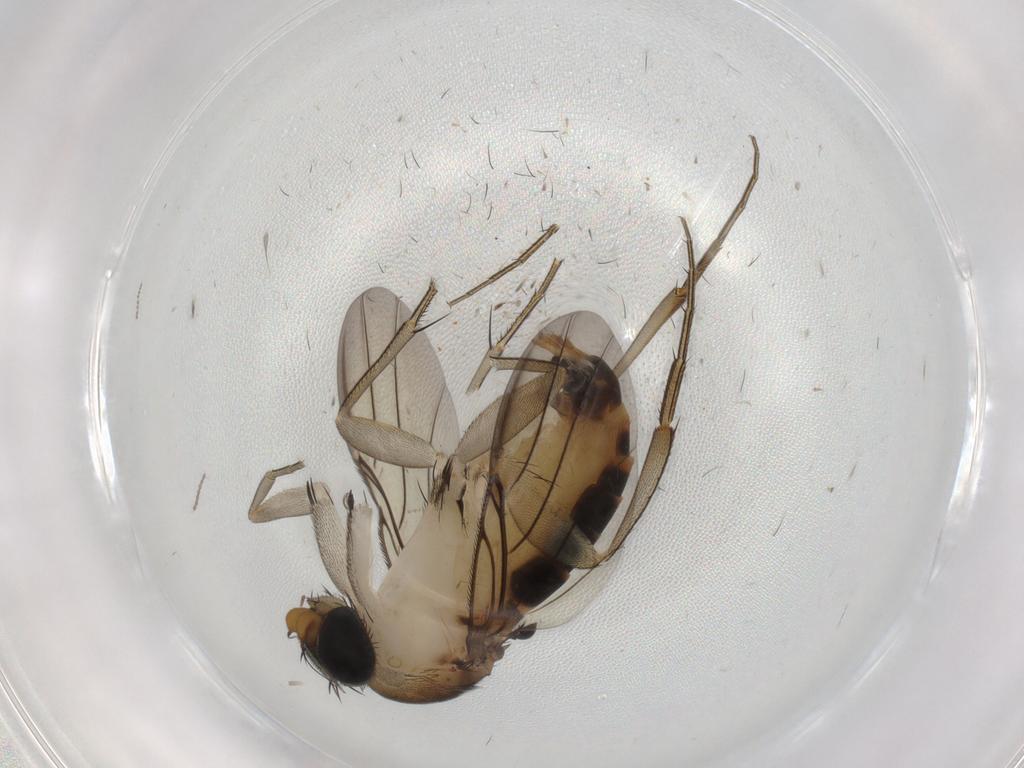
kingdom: Animalia
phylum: Arthropoda
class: Insecta
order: Diptera
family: Phoridae
